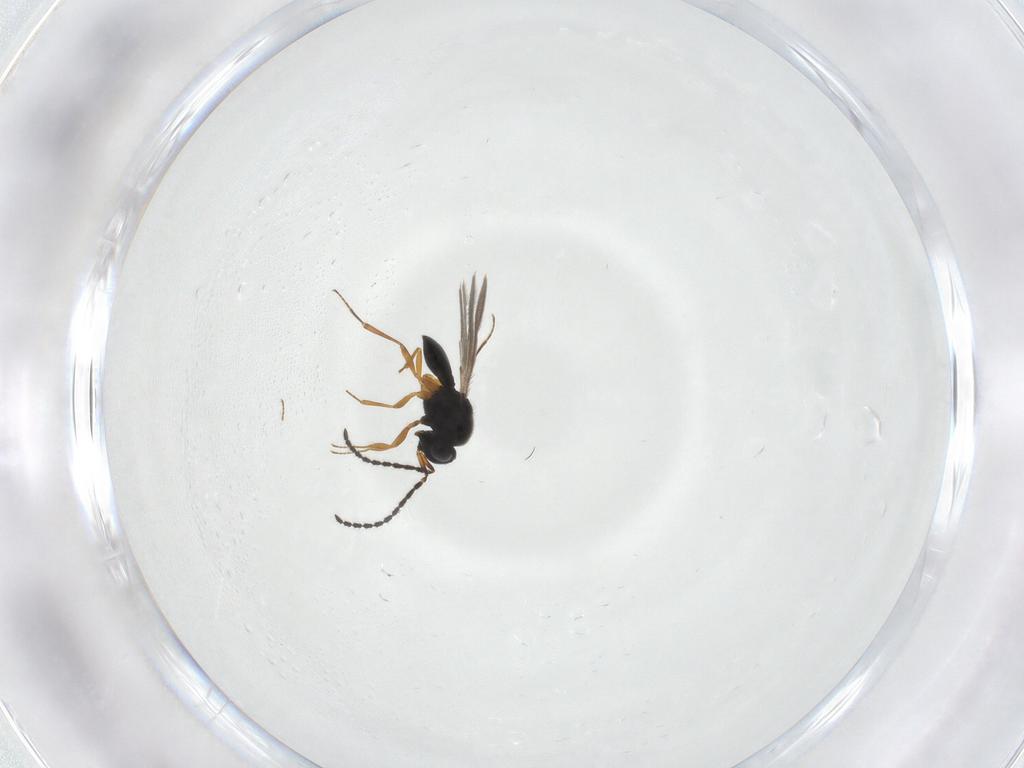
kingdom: Animalia
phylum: Arthropoda
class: Insecta
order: Hymenoptera
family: Scelionidae
